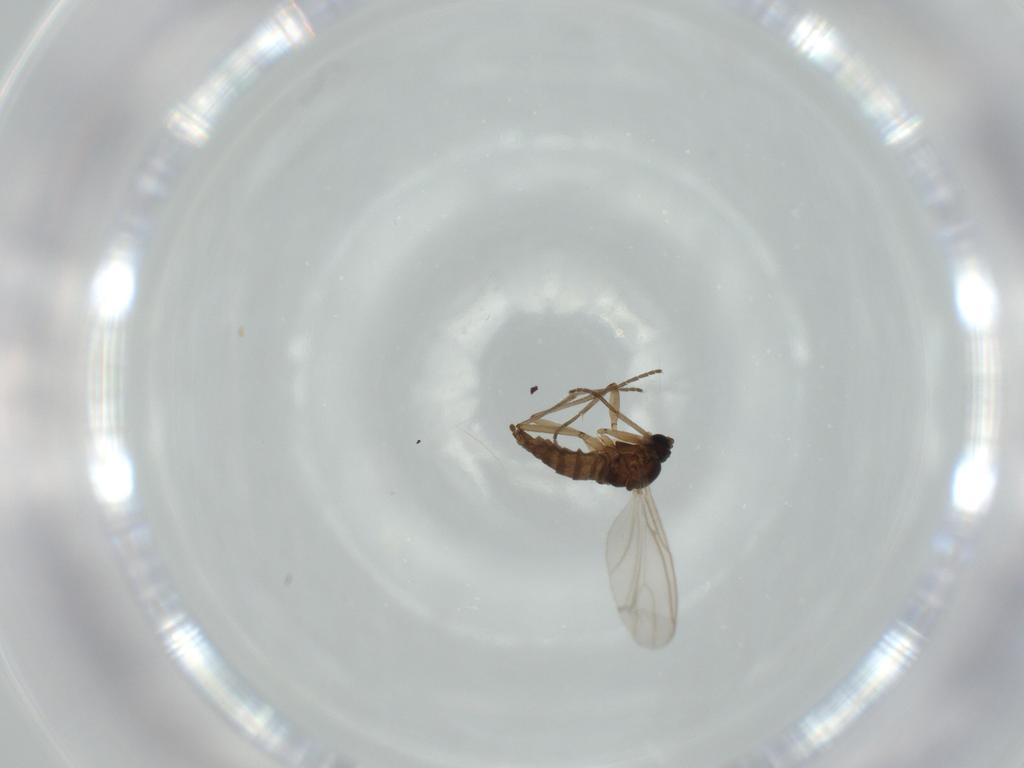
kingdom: Animalia
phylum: Arthropoda
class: Insecta
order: Diptera
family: Sciaridae
